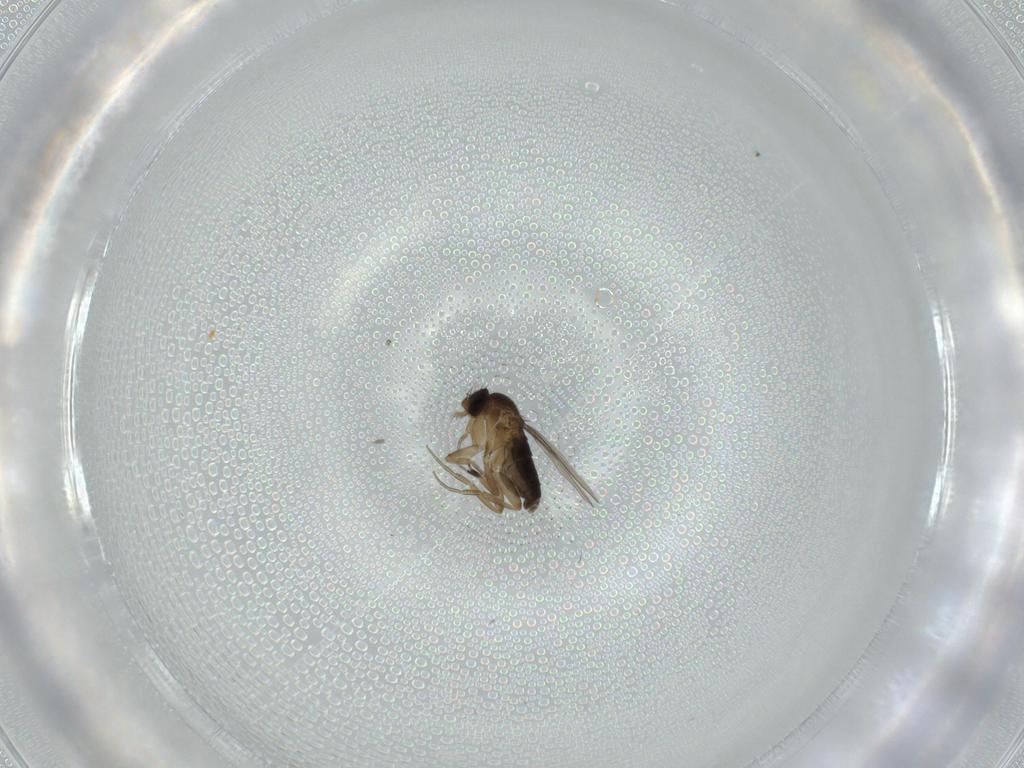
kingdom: Animalia
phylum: Arthropoda
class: Insecta
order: Diptera
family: Phoridae
